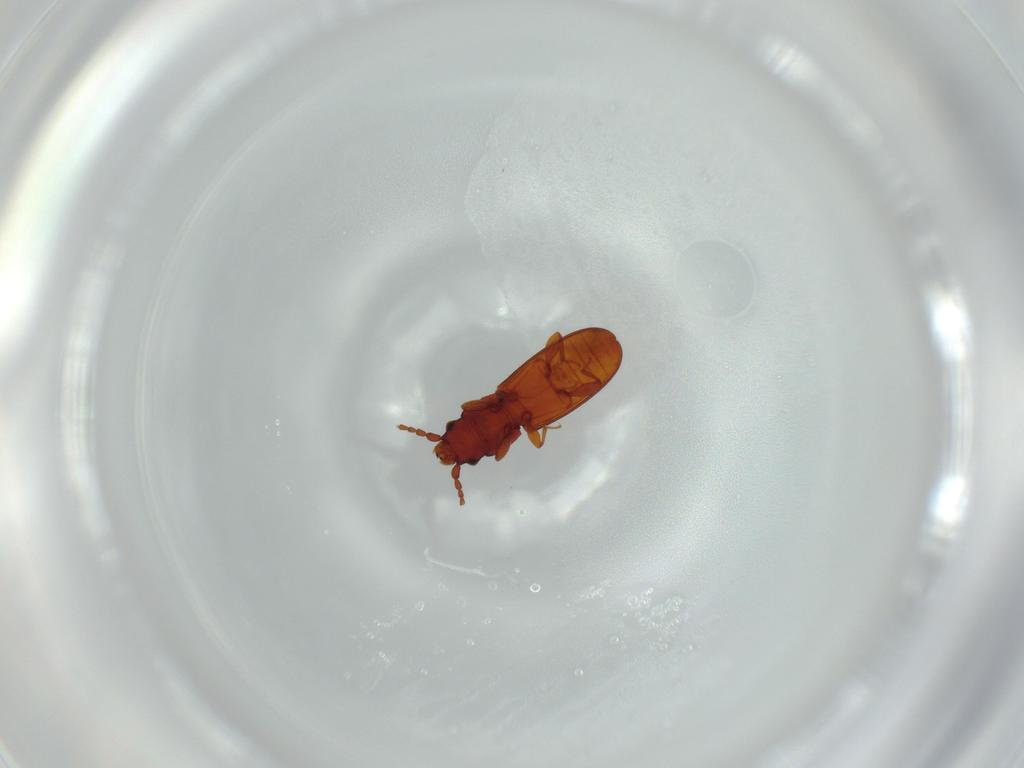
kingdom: Animalia
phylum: Arthropoda
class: Insecta
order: Coleoptera
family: Laemophloeidae
